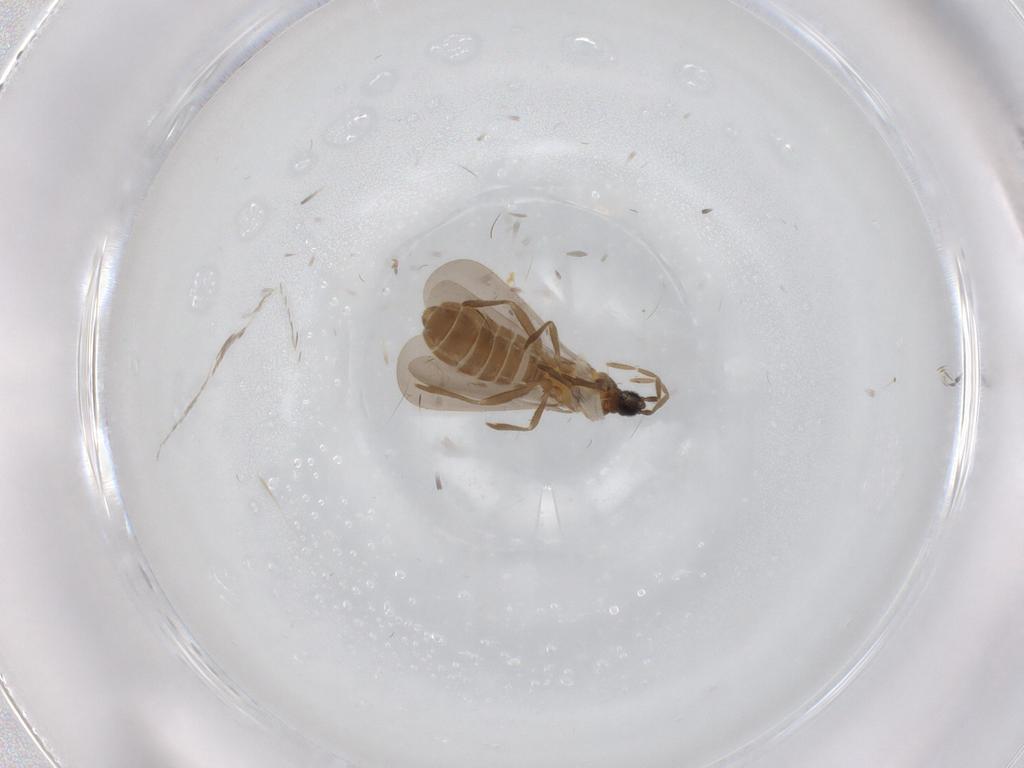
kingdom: Animalia
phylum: Arthropoda
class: Insecta
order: Hemiptera
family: Enicocephalidae
